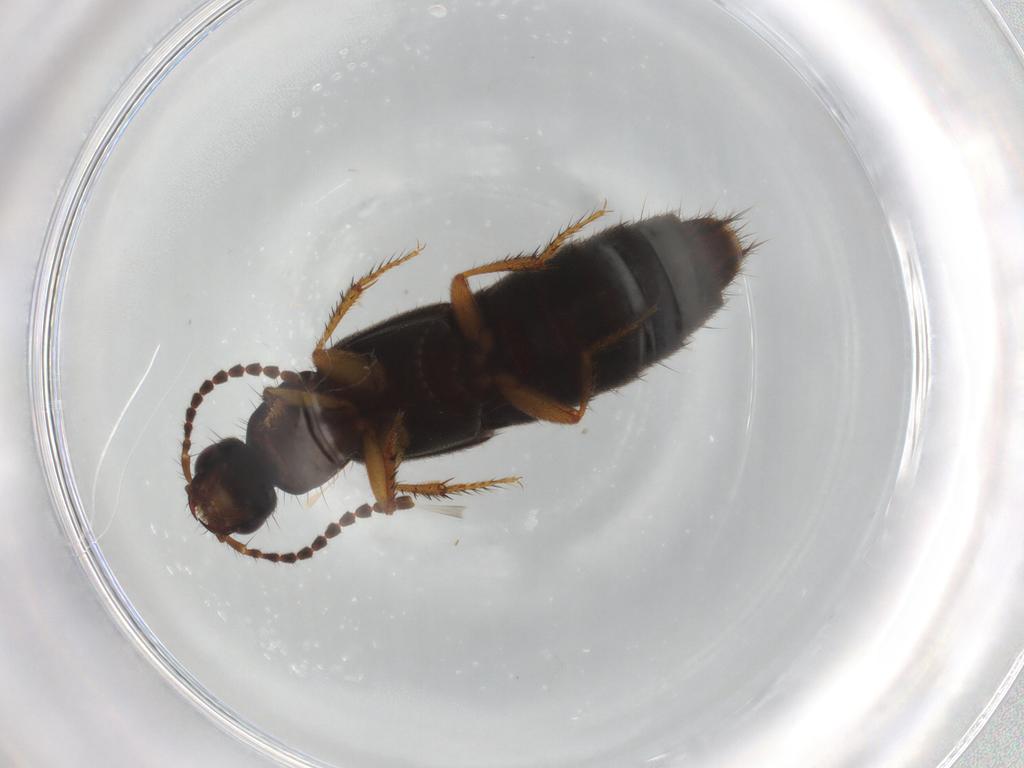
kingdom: Animalia
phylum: Arthropoda
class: Insecta
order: Coleoptera
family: Staphylinidae
